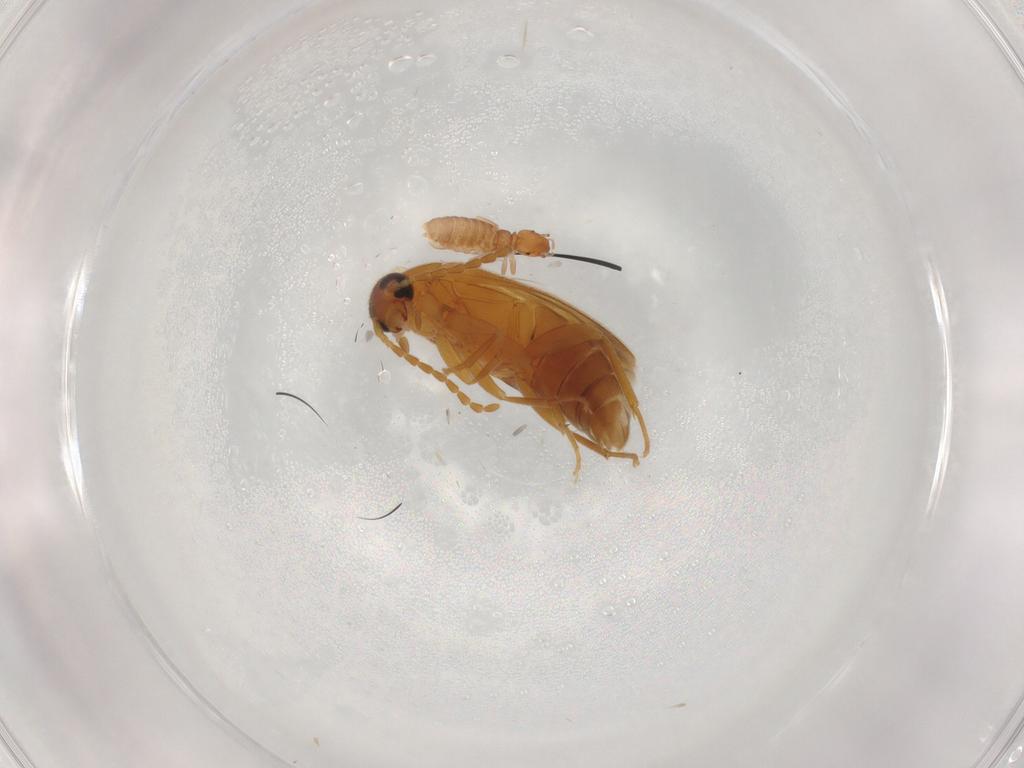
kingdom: Animalia
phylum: Arthropoda
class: Insecta
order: Coleoptera
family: Scraptiidae
